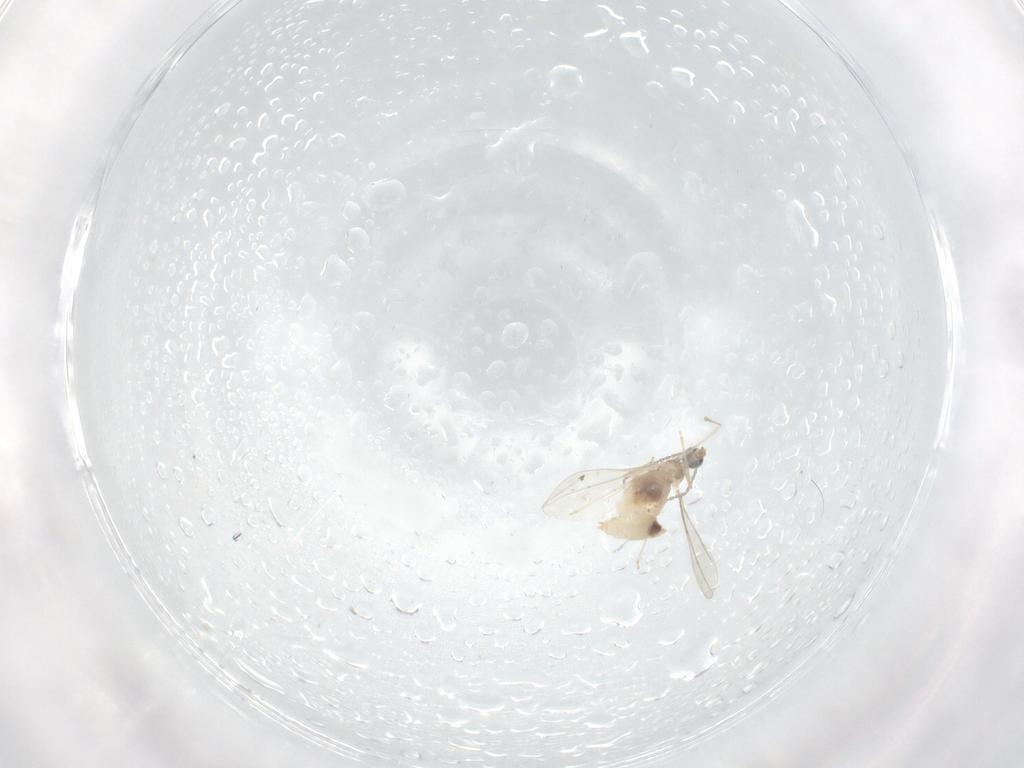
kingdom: Animalia
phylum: Arthropoda
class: Insecta
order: Diptera
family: Cecidomyiidae
